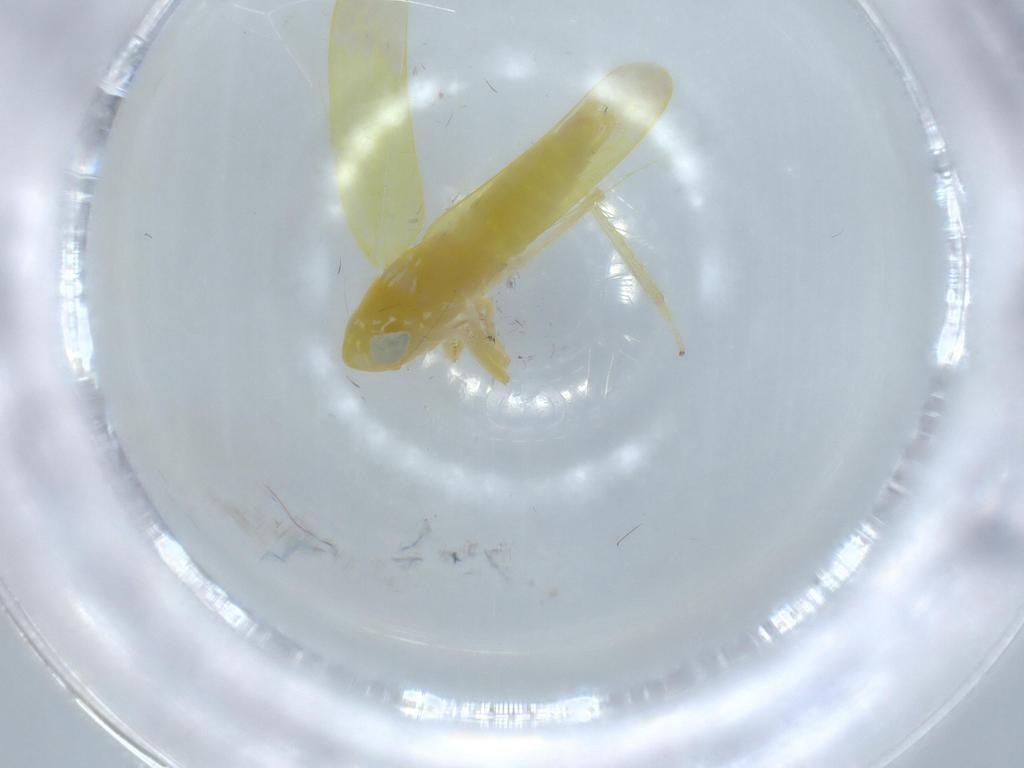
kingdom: Animalia
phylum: Arthropoda
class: Insecta
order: Hemiptera
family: Cicadellidae
